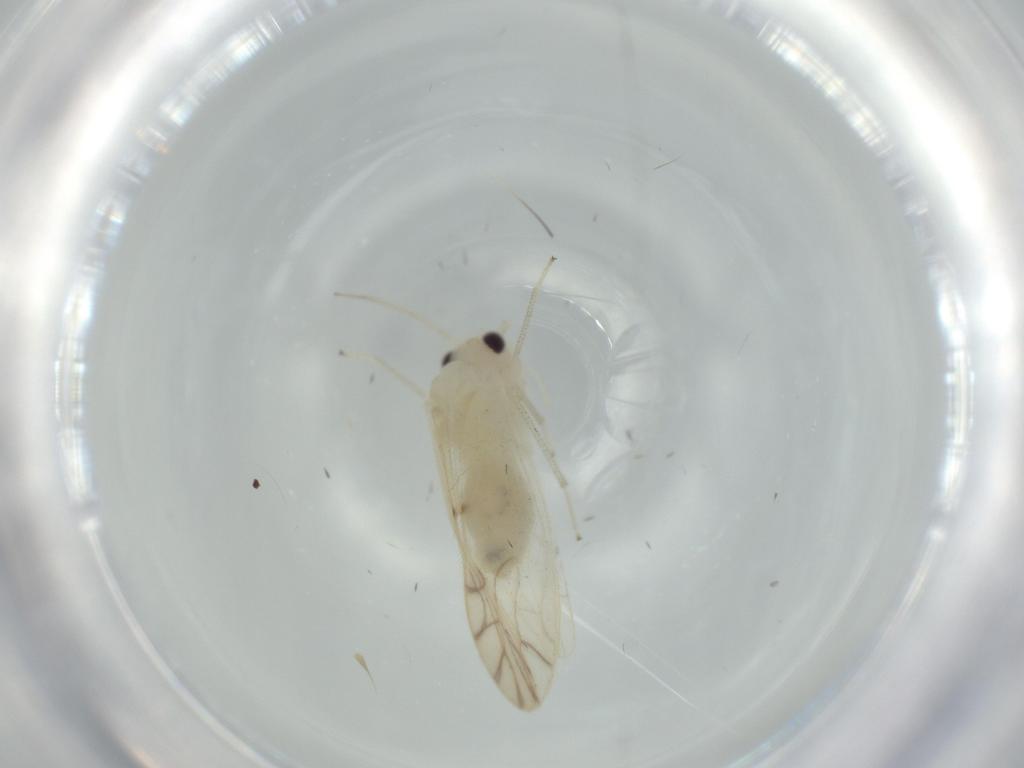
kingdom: Animalia
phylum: Arthropoda
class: Insecta
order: Psocodea
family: Caeciliusidae
